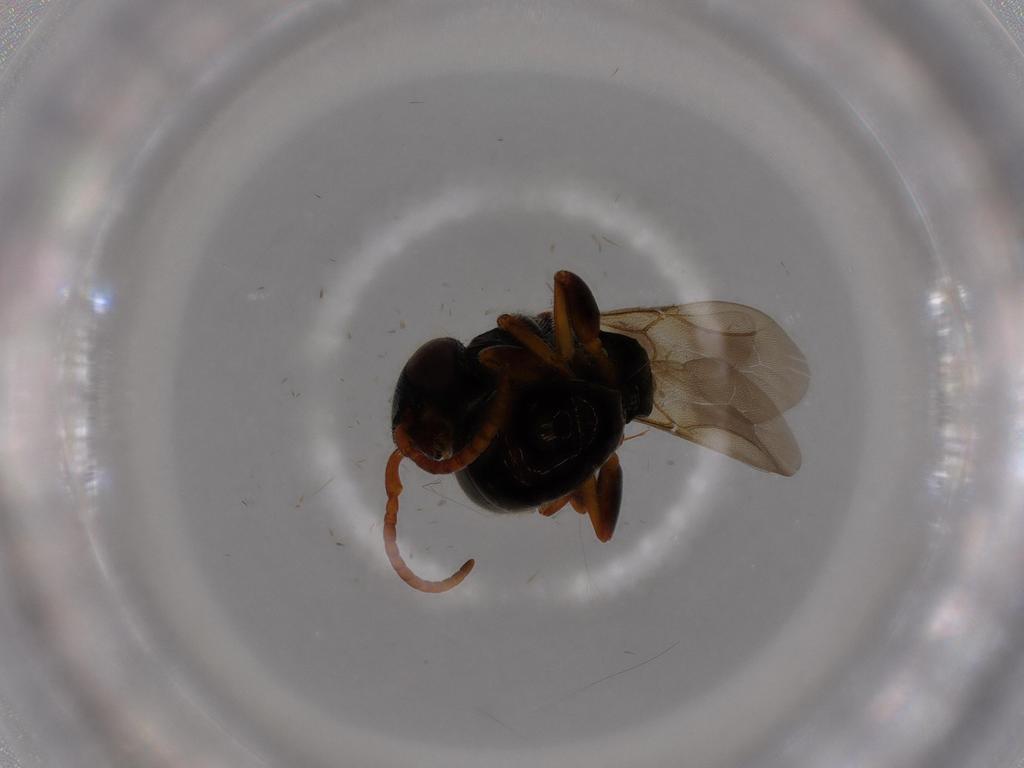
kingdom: Animalia
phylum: Arthropoda
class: Insecta
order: Hymenoptera
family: Bethylidae
